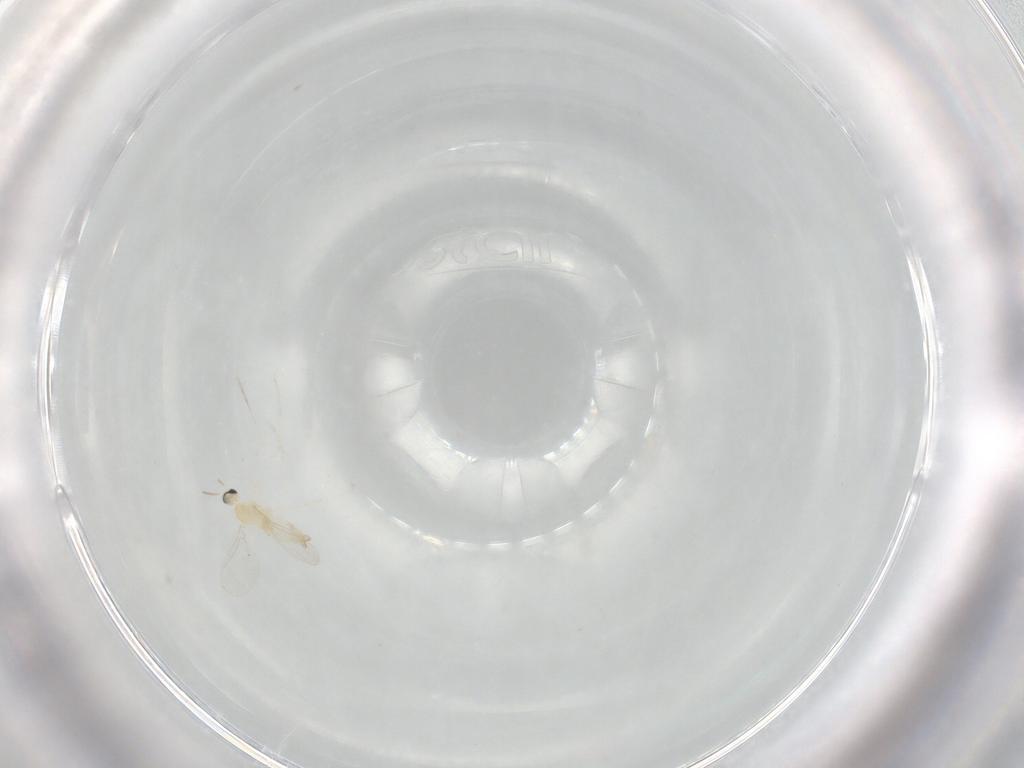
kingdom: Animalia
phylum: Arthropoda
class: Insecta
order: Diptera
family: Cecidomyiidae
